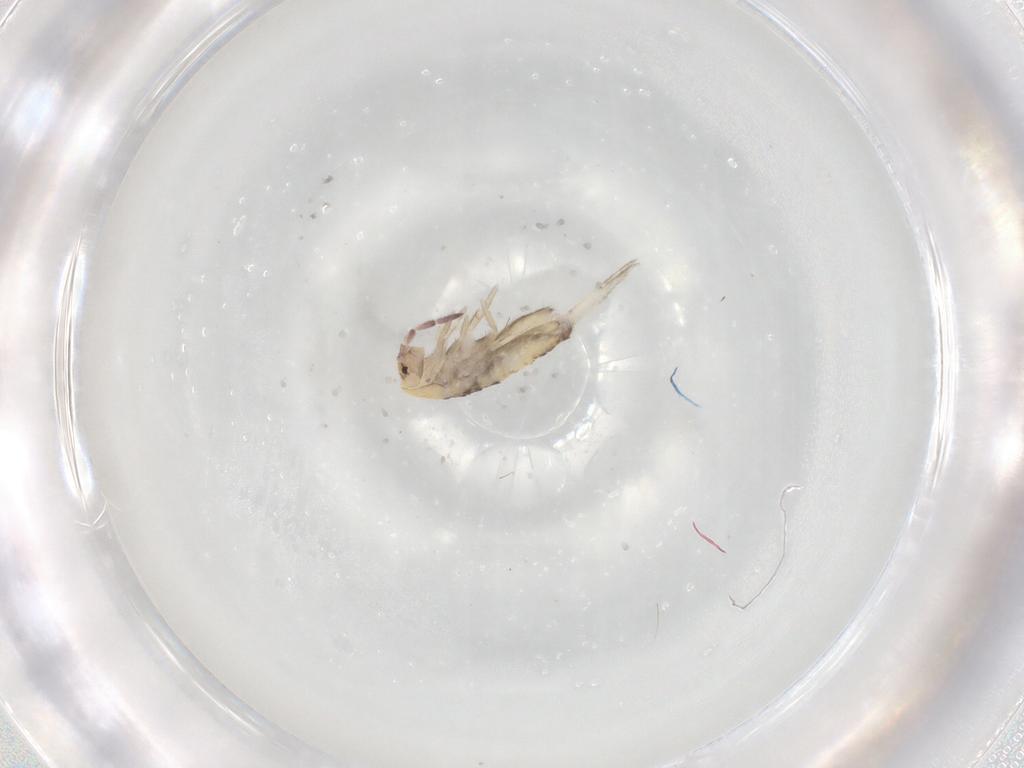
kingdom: Animalia
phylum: Arthropoda
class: Collembola
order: Entomobryomorpha
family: Entomobryidae
